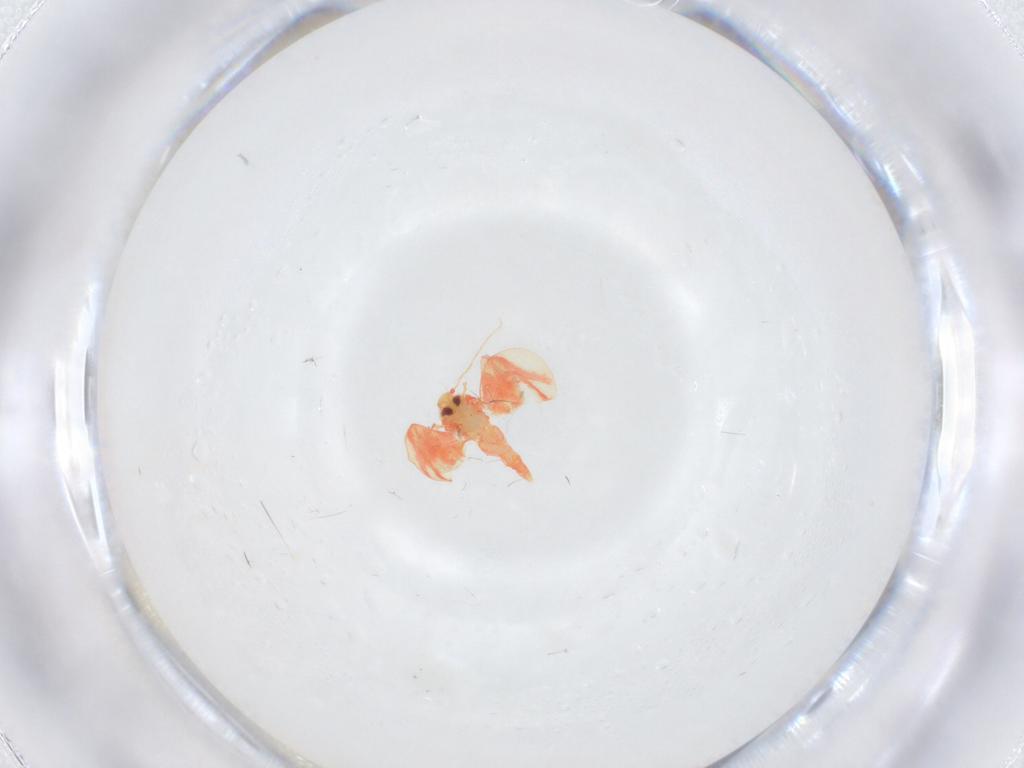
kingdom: Animalia
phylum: Arthropoda
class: Insecta
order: Hemiptera
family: Aleyrodidae
